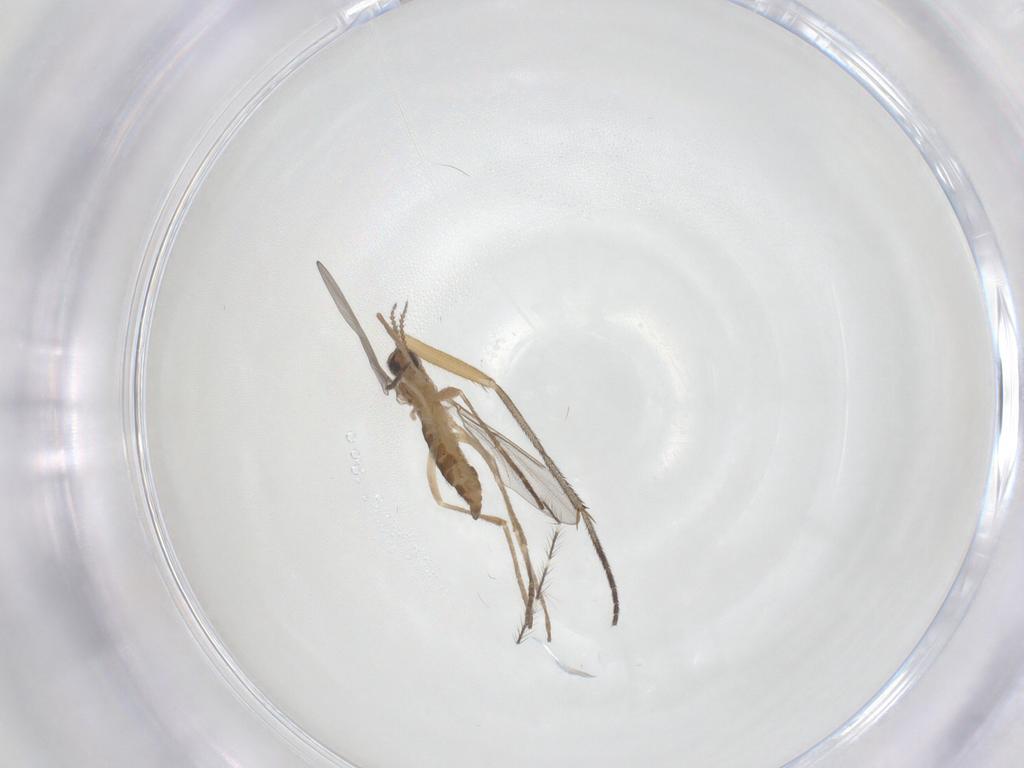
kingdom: Animalia
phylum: Arthropoda
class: Insecta
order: Diptera
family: Cecidomyiidae
